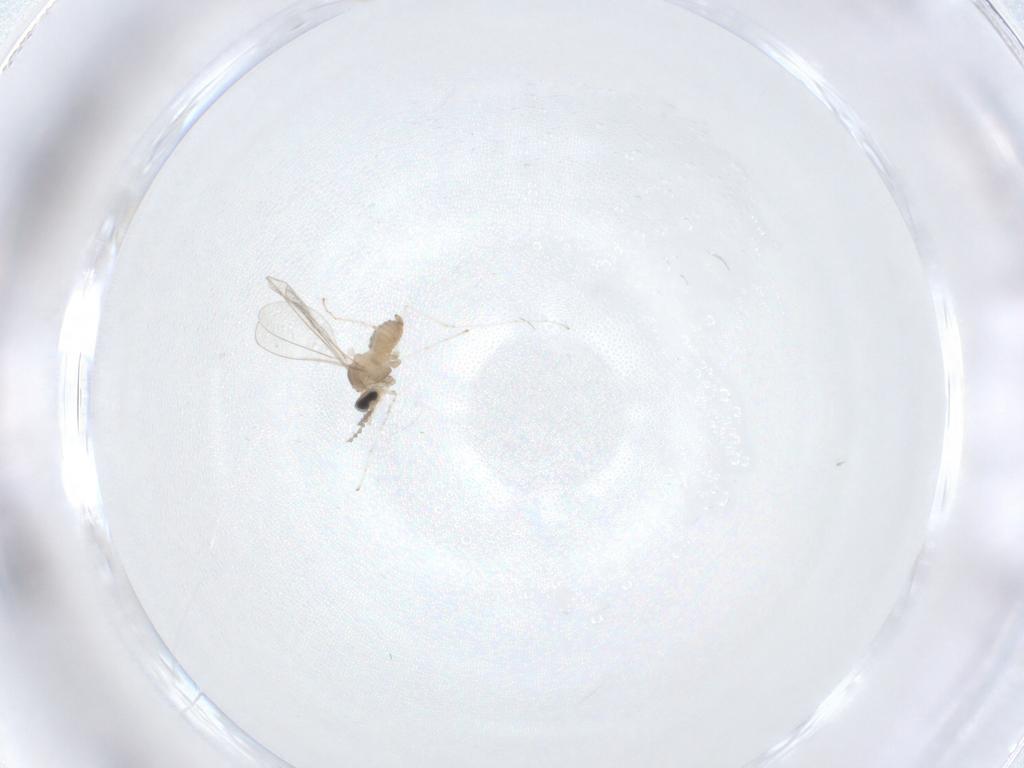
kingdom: Animalia
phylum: Arthropoda
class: Insecta
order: Diptera
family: Cecidomyiidae
